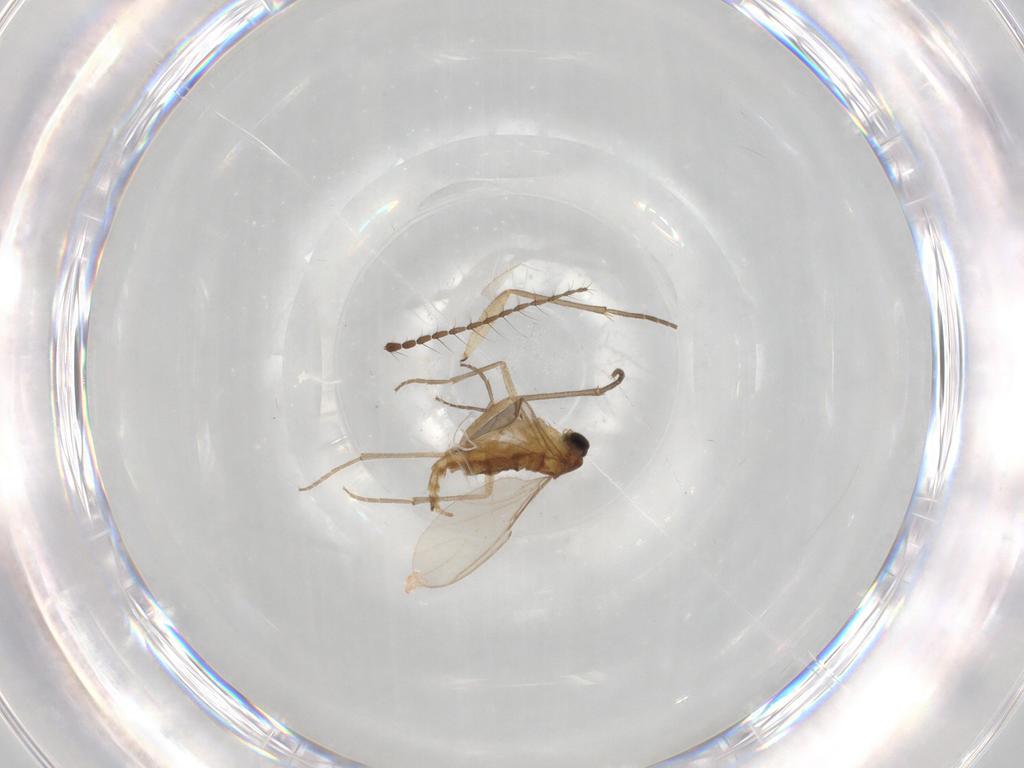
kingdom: Animalia
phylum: Arthropoda
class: Insecta
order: Diptera
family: Sciaridae
